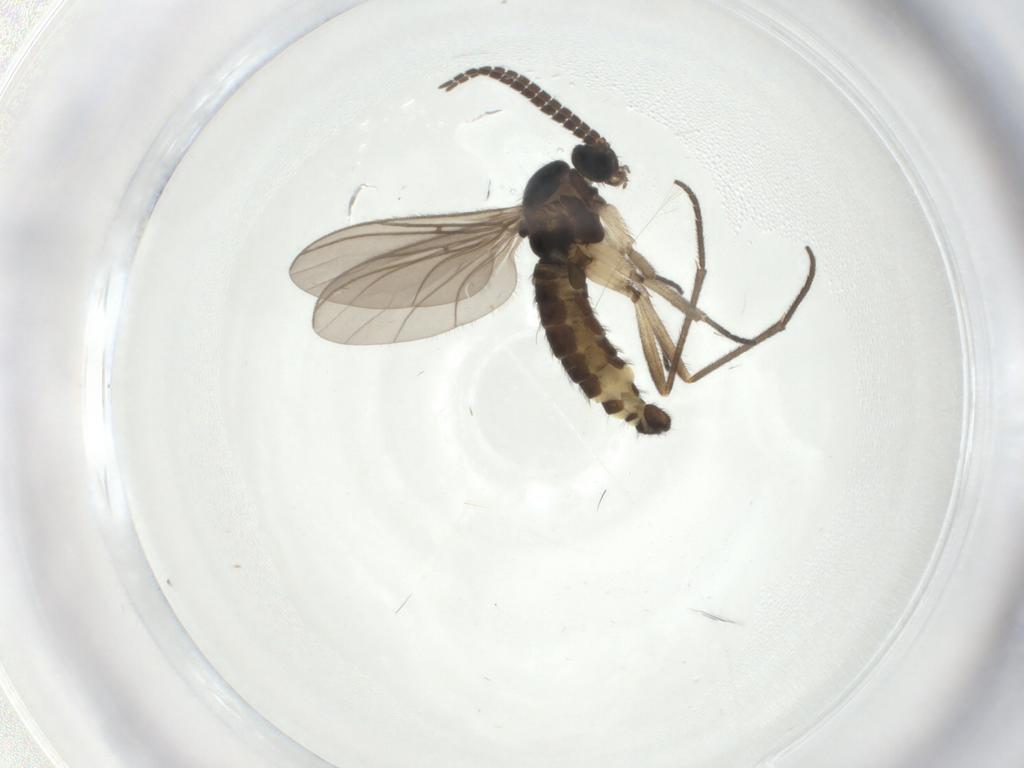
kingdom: Animalia
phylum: Arthropoda
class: Insecta
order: Diptera
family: Sciaridae
